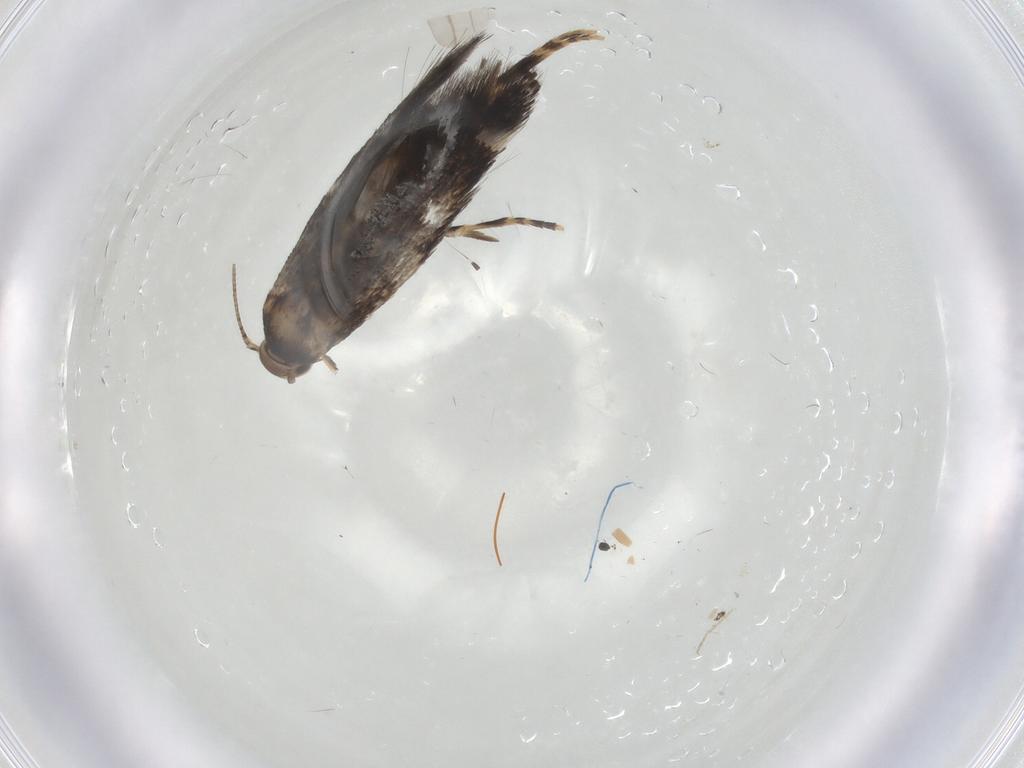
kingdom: Animalia
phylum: Arthropoda
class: Insecta
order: Lepidoptera
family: Elachistidae
